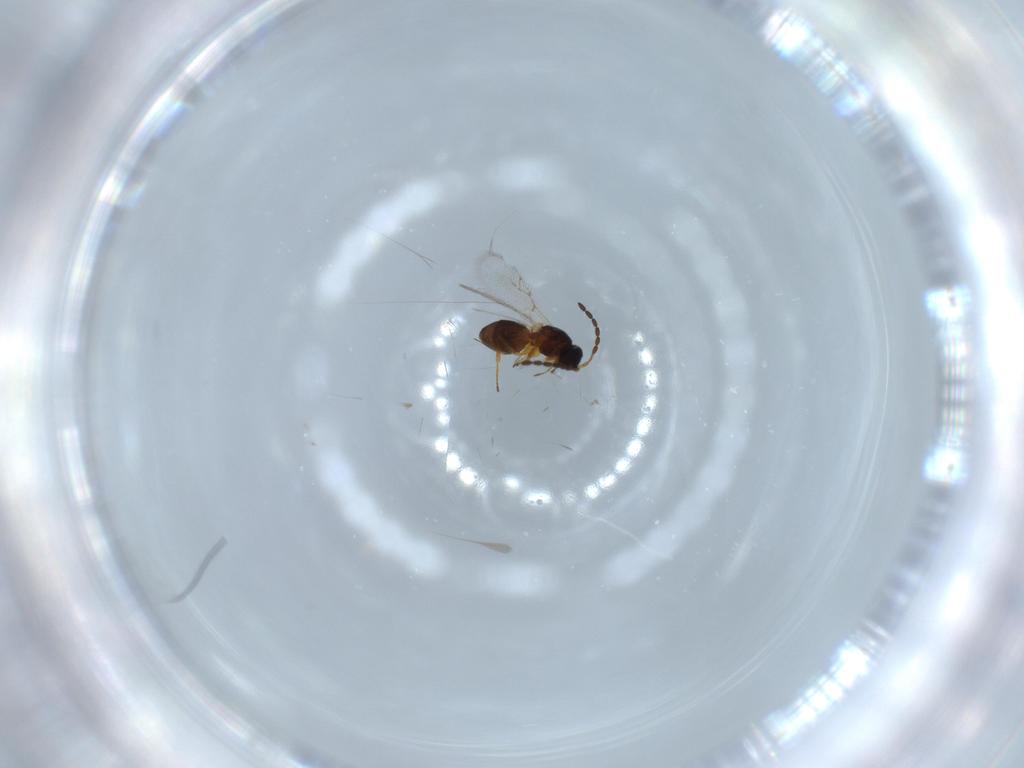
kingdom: Animalia
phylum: Arthropoda
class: Insecta
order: Hymenoptera
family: Figitidae
